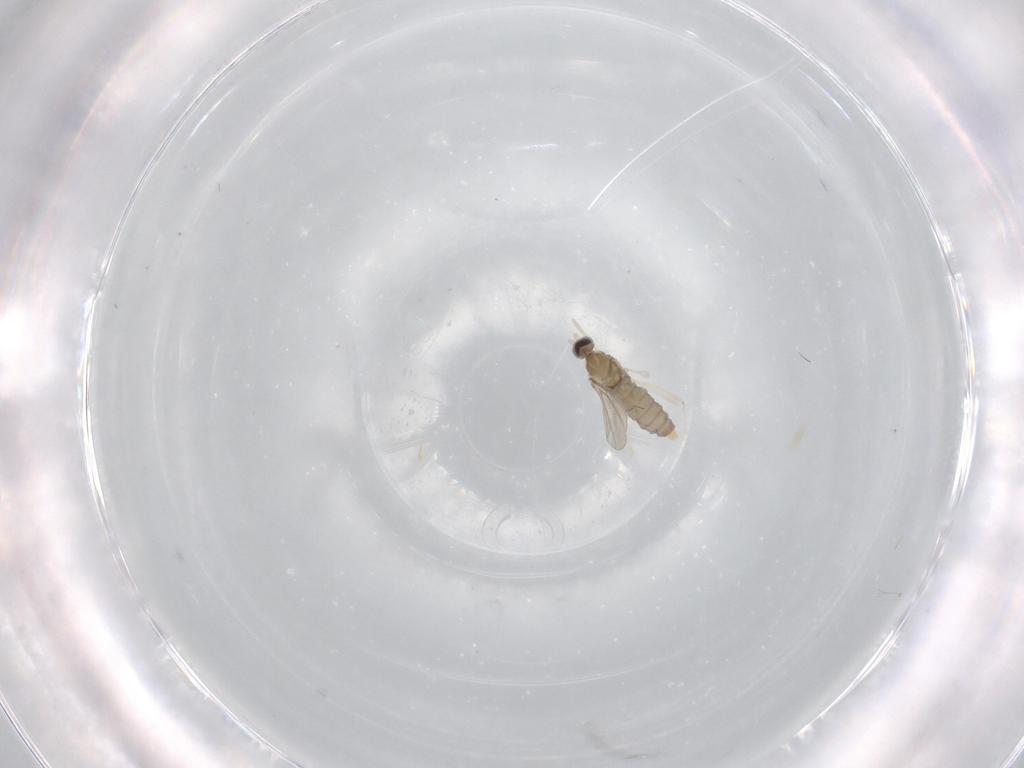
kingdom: Animalia
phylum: Arthropoda
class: Insecta
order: Diptera
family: Cecidomyiidae
